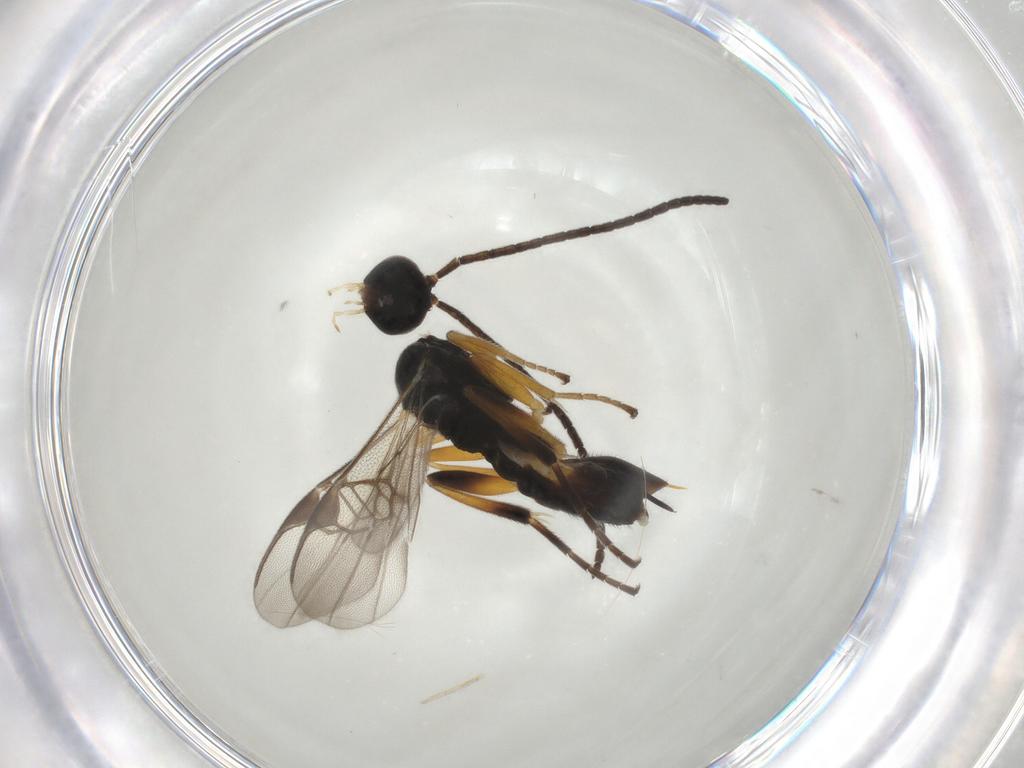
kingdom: Animalia
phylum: Arthropoda
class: Insecta
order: Hymenoptera
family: Braconidae
